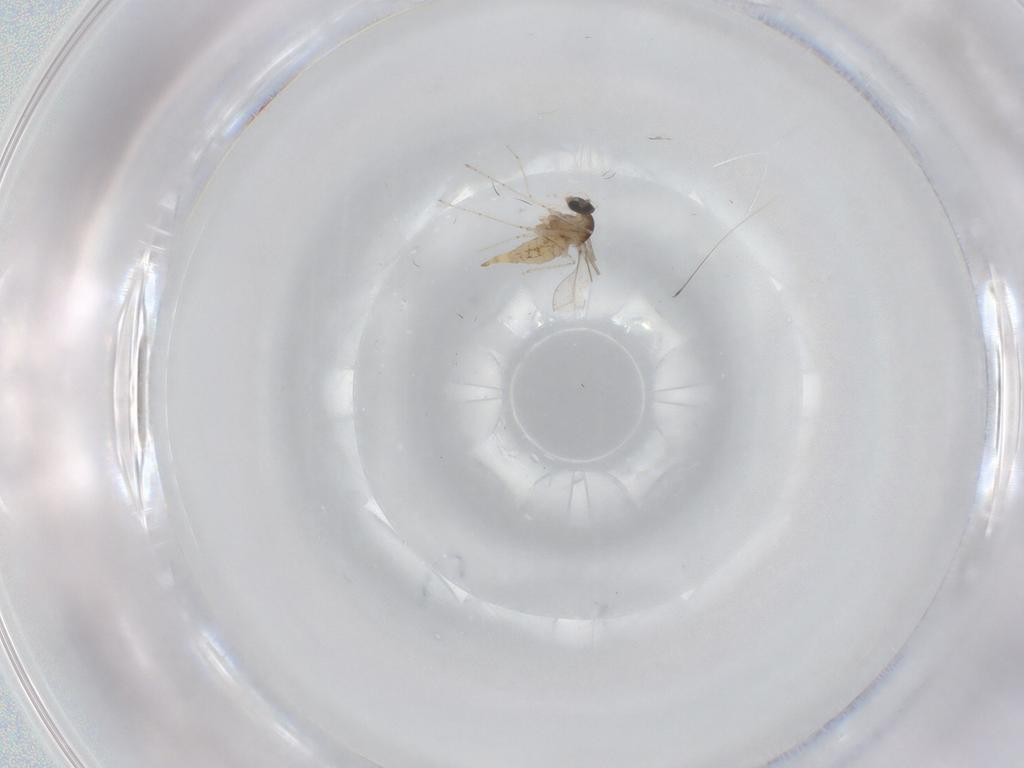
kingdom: Animalia
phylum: Arthropoda
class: Insecta
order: Diptera
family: Cecidomyiidae
